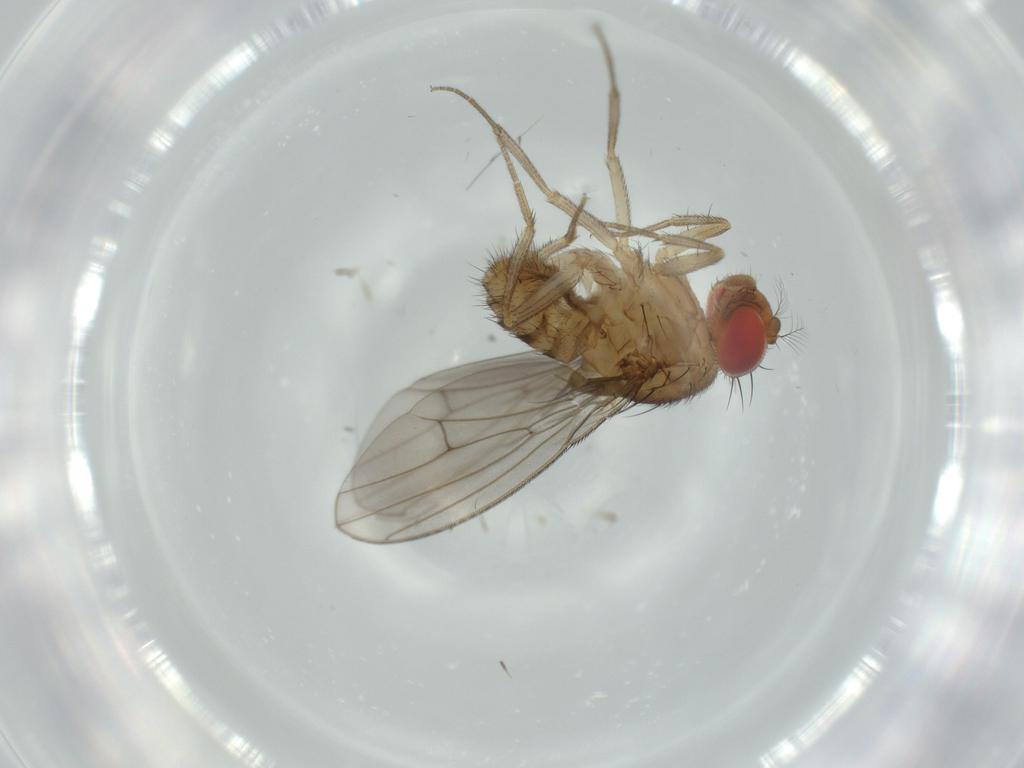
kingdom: Animalia
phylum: Arthropoda
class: Insecta
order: Diptera
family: Drosophilidae
